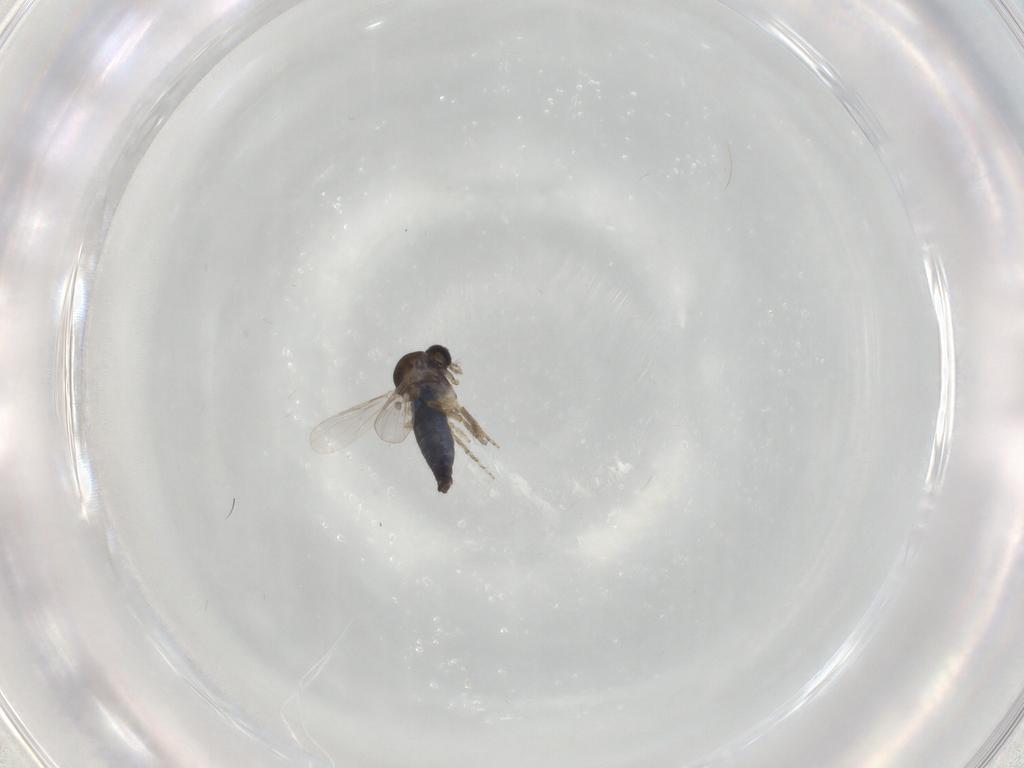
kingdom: Animalia
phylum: Arthropoda
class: Insecta
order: Diptera
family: Ceratopogonidae
